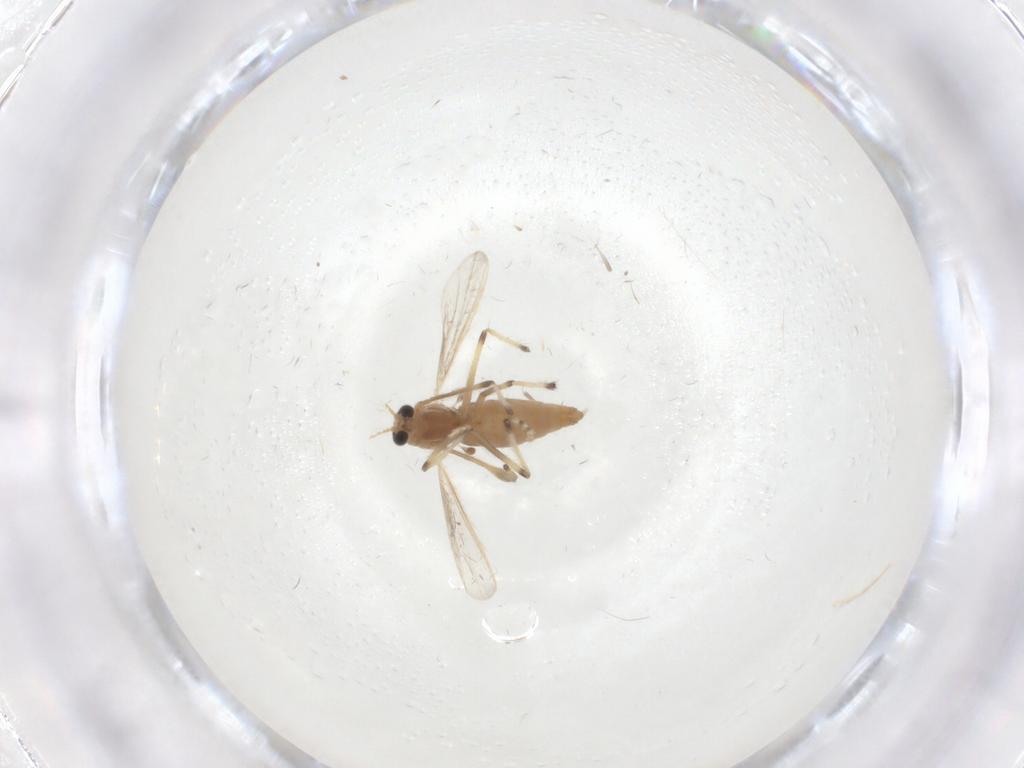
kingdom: Animalia
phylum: Arthropoda
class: Insecta
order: Diptera
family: Chironomidae
